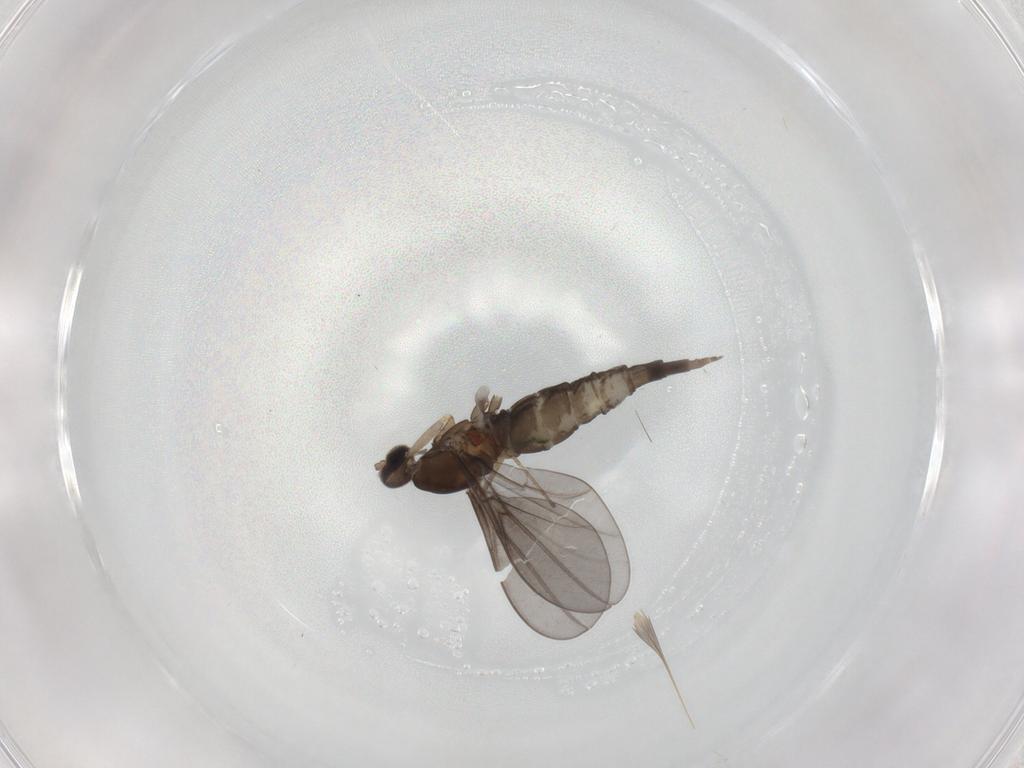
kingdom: Animalia
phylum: Arthropoda
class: Insecta
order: Diptera
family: Cecidomyiidae
